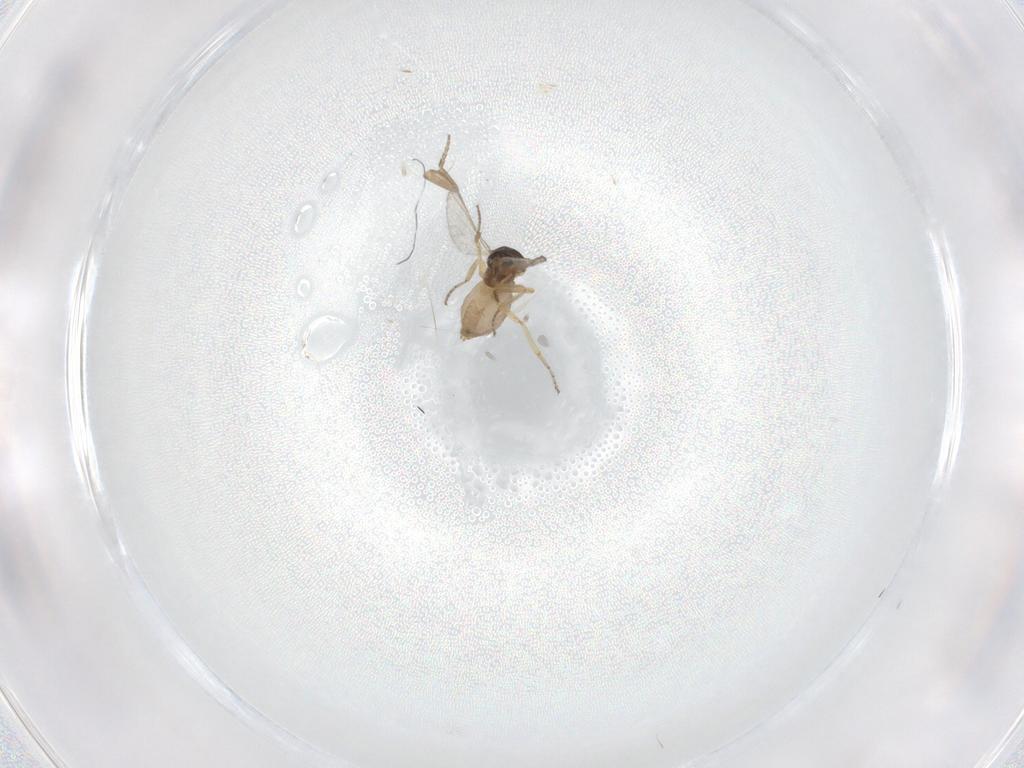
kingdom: Animalia
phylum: Arthropoda
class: Insecta
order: Diptera
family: Ceratopogonidae
